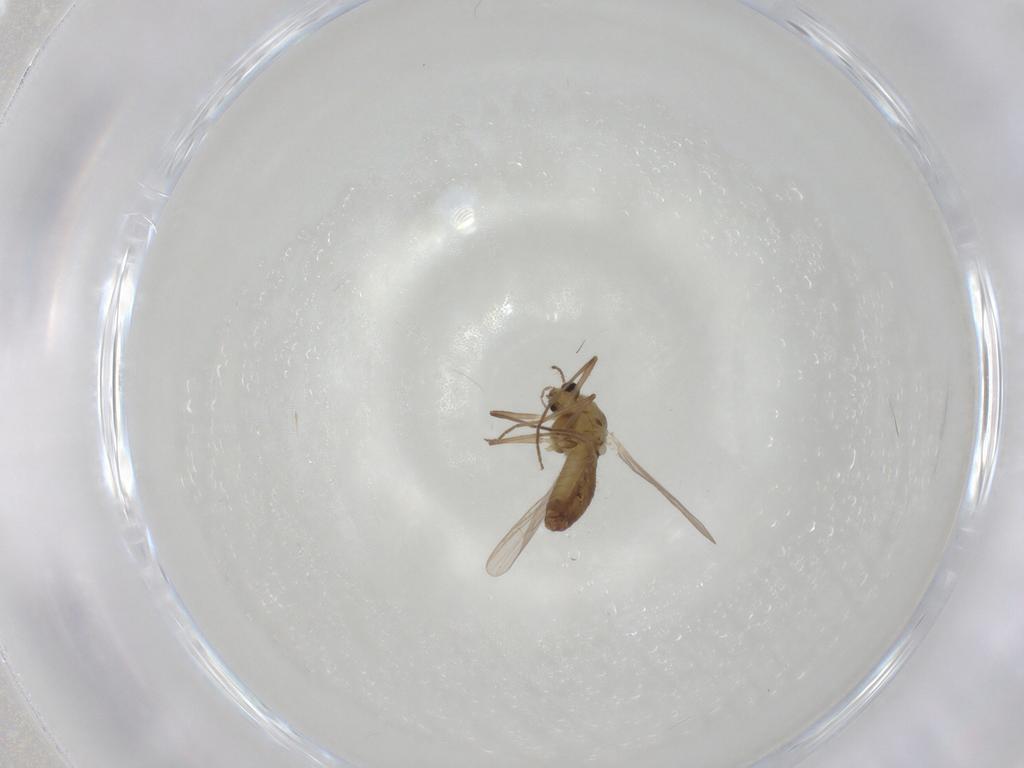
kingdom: Animalia
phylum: Arthropoda
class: Insecta
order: Diptera
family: Chironomidae
